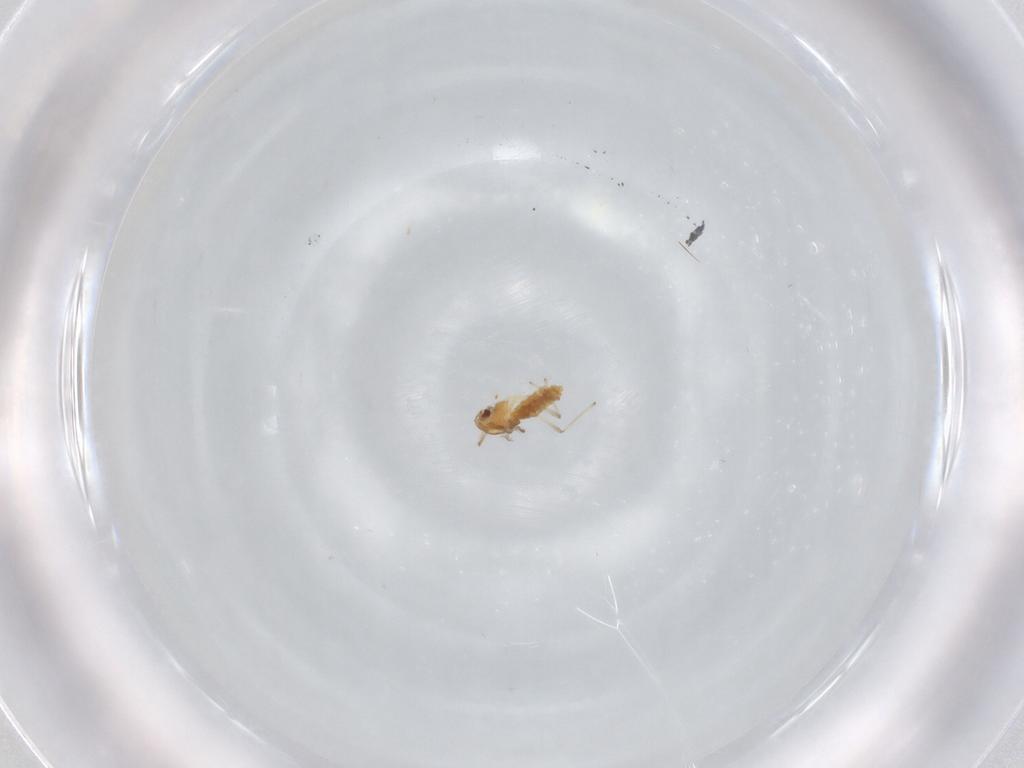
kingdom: Animalia
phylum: Arthropoda
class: Insecta
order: Diptera
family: Chironomidae
